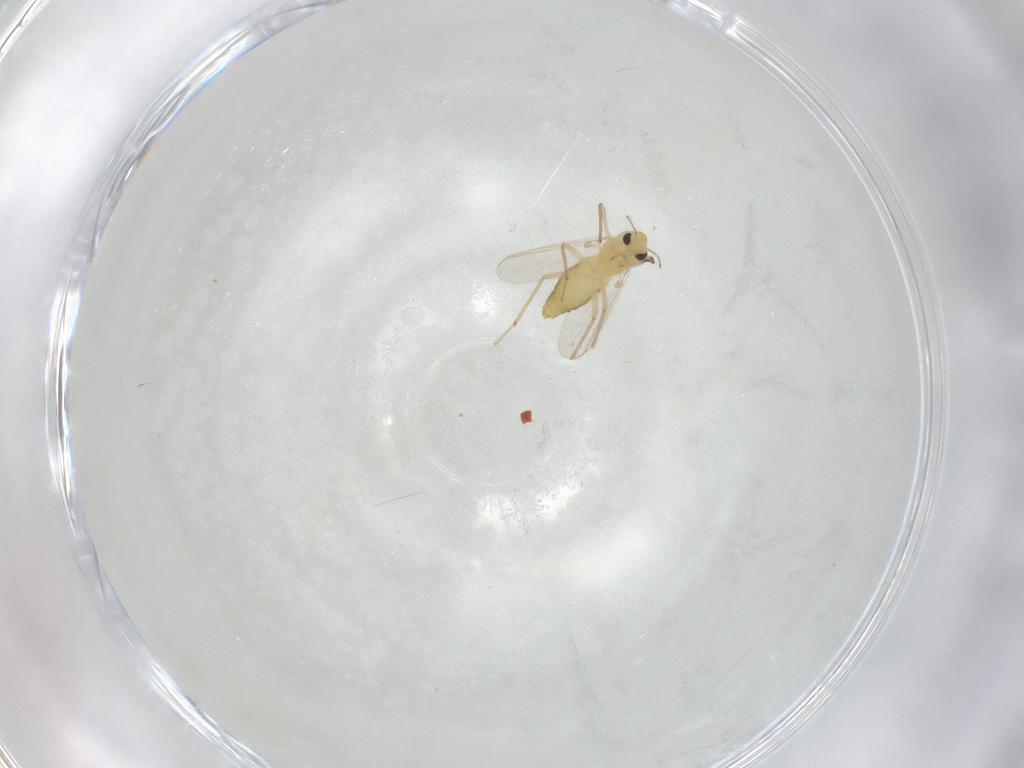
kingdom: Animalia
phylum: Arthropoda
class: Insecta
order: Diptera
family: Chironomidae
